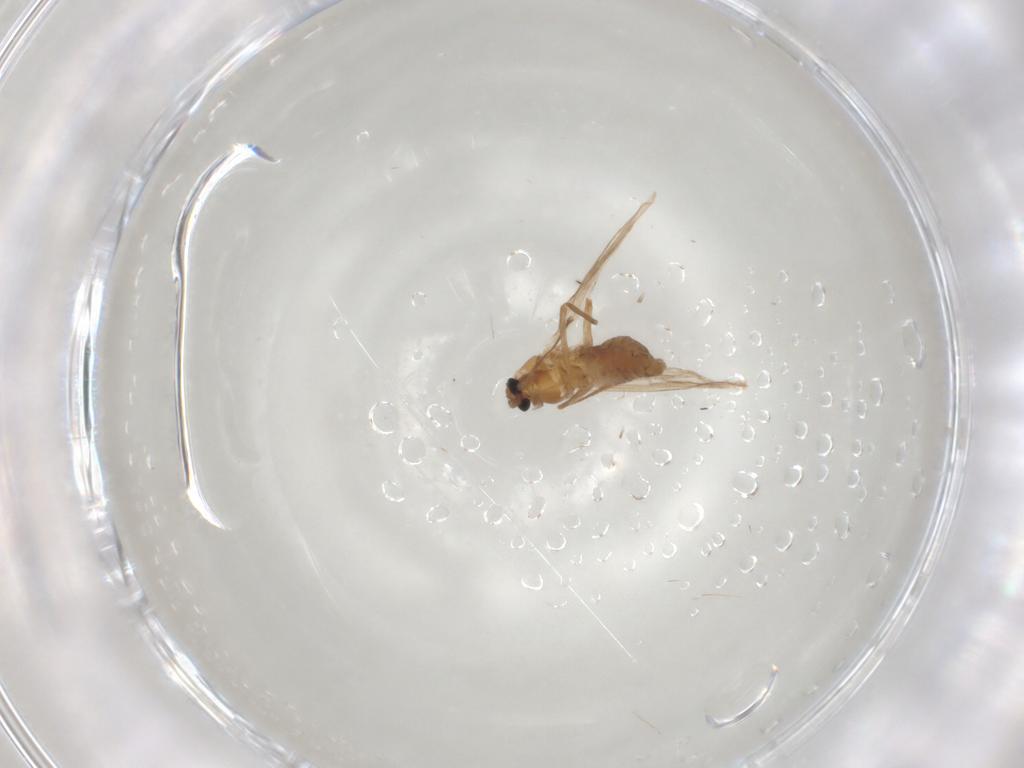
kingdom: Animalia
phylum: Arthropoda
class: Insecta
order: Diptera
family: Chironomidae
